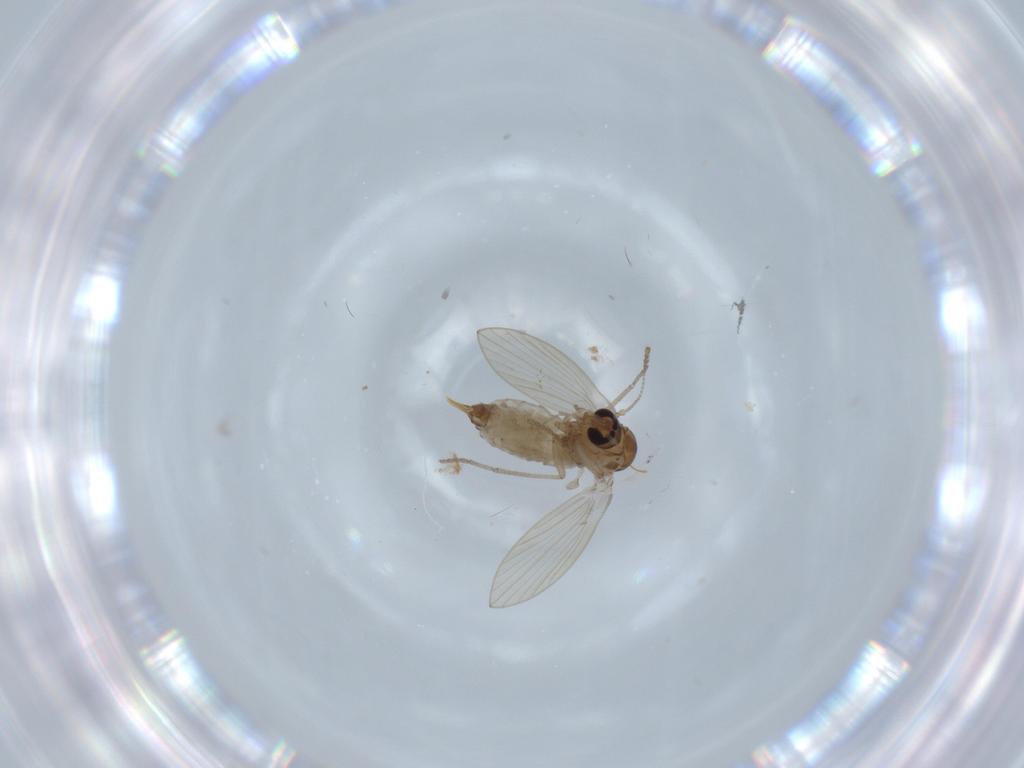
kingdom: Animalia
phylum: Arthropoda
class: Insecta
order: Diptera
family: Psychodidae
